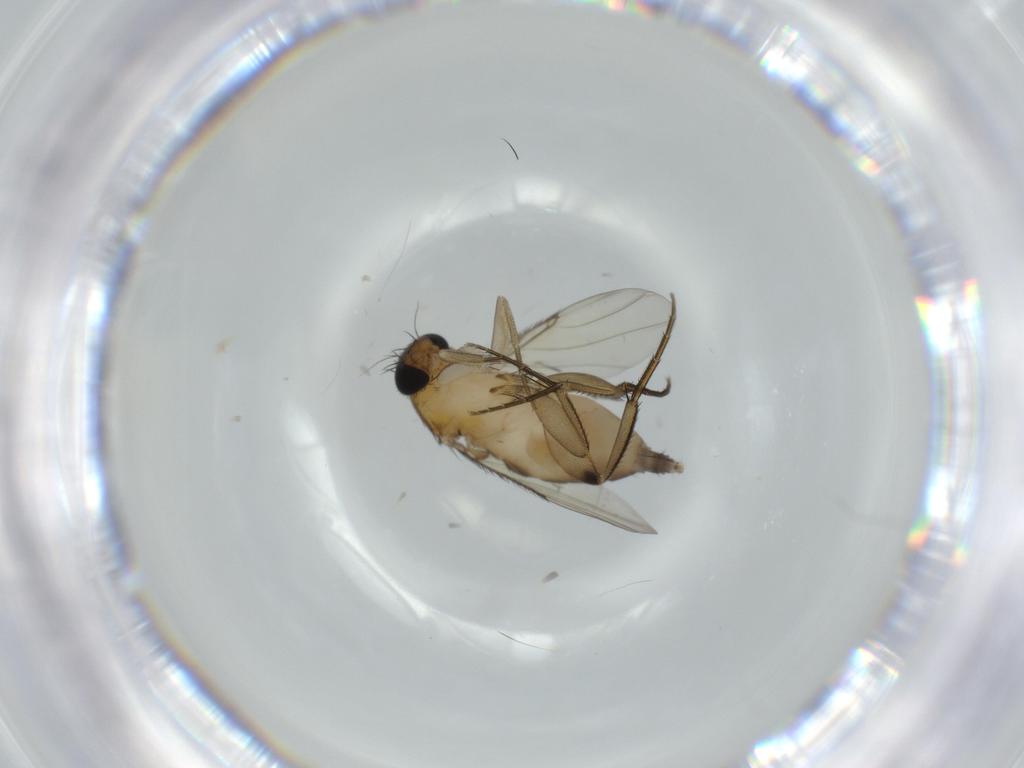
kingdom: Animalia
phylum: Arthropoda
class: Insecta
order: Diptera
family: Phoridae
